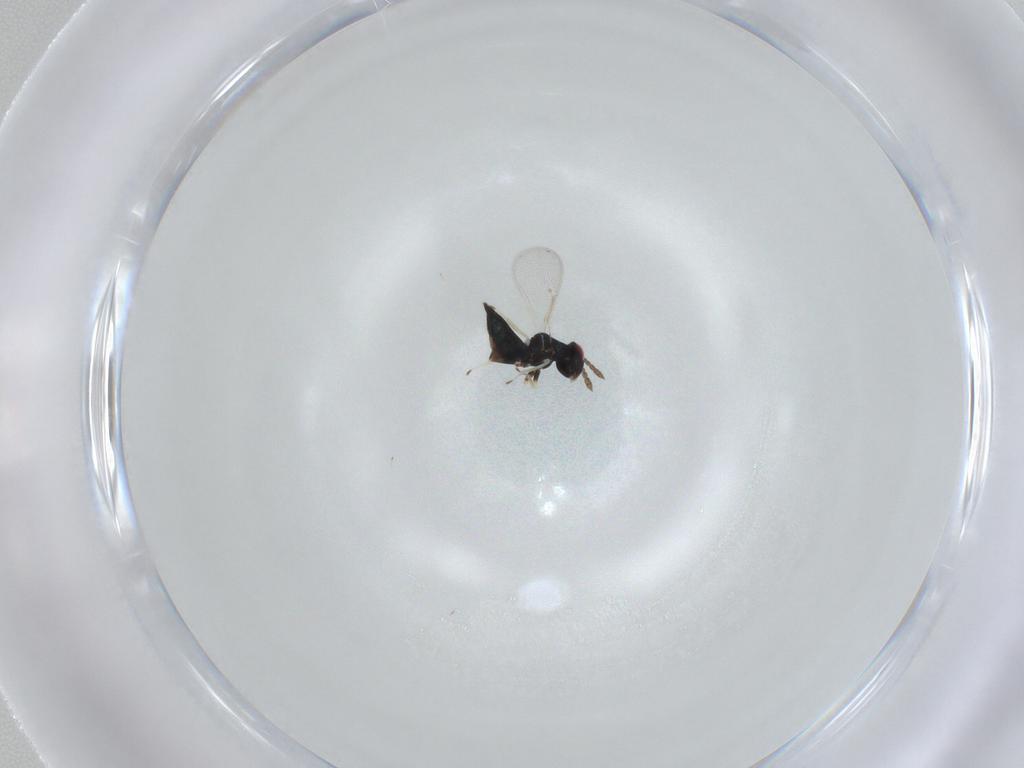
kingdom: Animalia
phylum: Arthropoda
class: Insecta
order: Hymenoptera
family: Eulophidae
